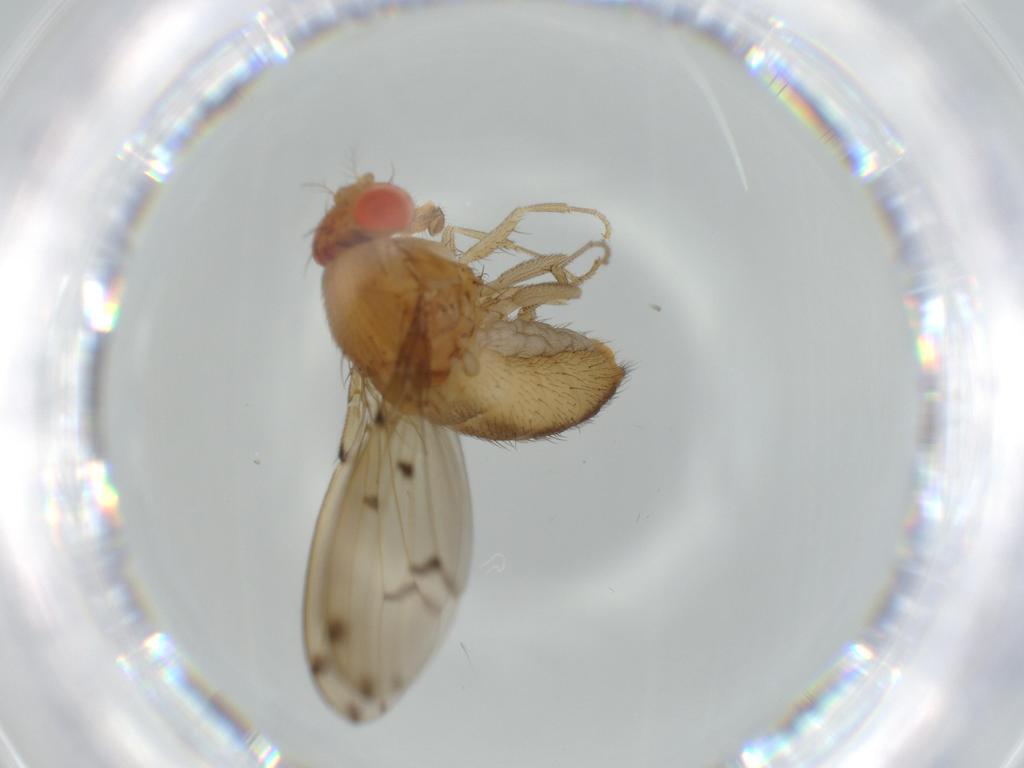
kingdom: Animalia
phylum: Arthropoda
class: Insecta
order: Diptera
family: Drosophilidae
